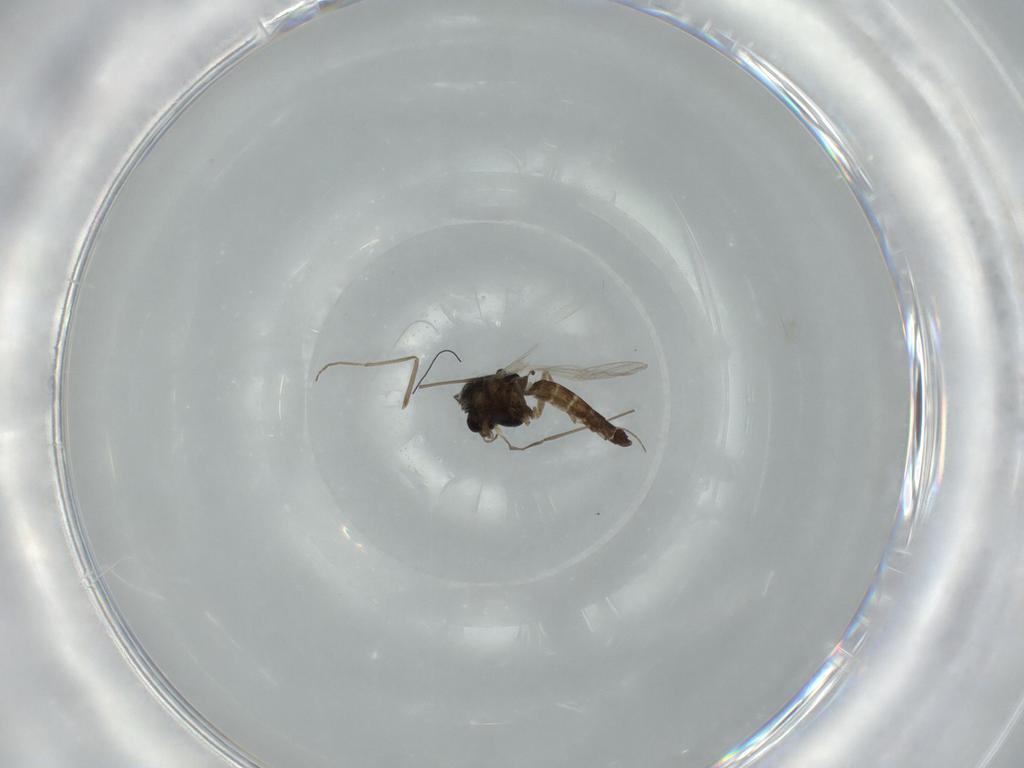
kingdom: Animalia
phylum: Arthropoda
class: Insecta
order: Diptera
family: Chironomidae
